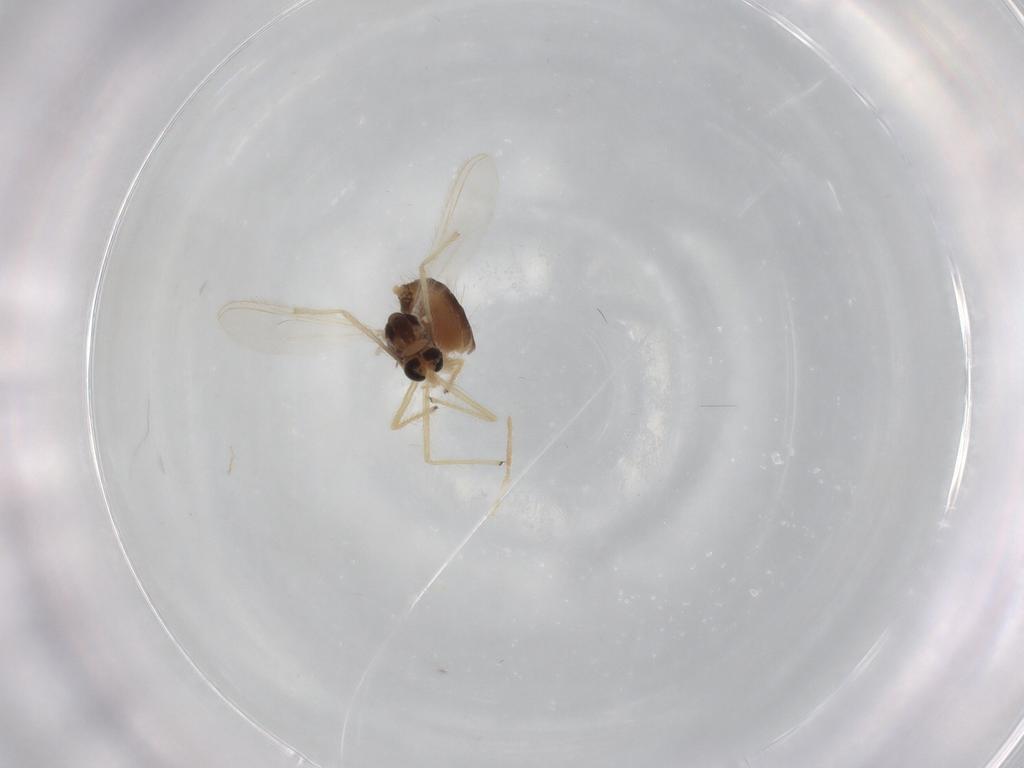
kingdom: Animalia
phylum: Arthropoda
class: Insecta
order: Diptera
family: Chironomidae
